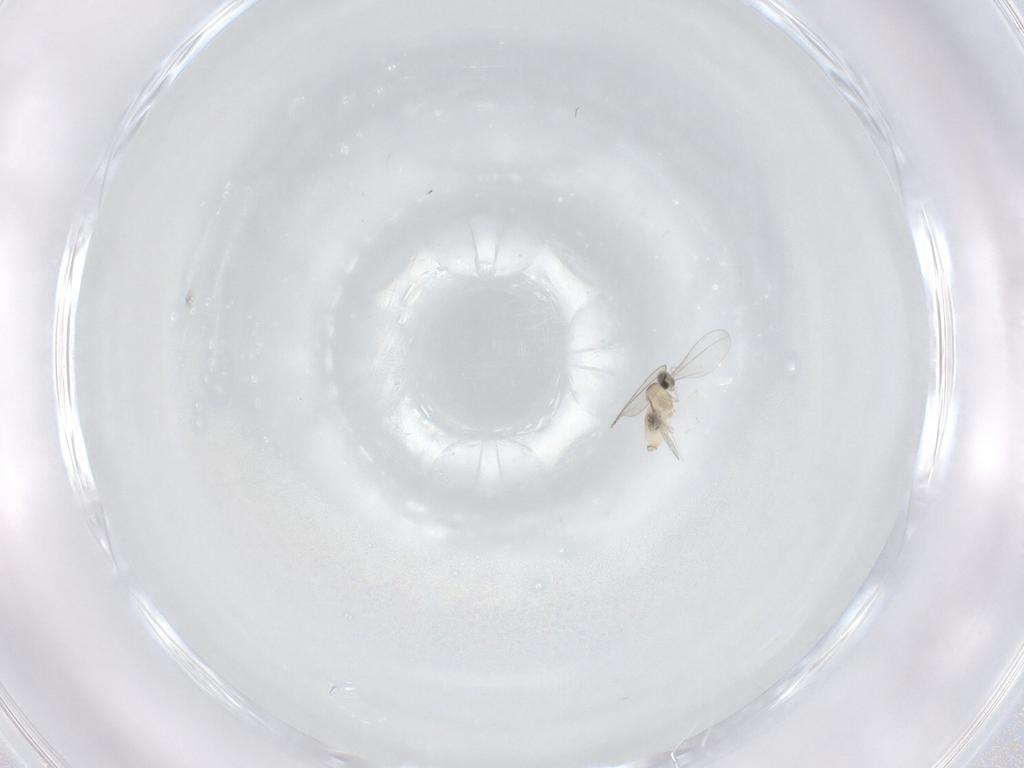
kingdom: Animalia
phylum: Arthropoda
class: Insecta
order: Diptera
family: Cecidomyiidae
